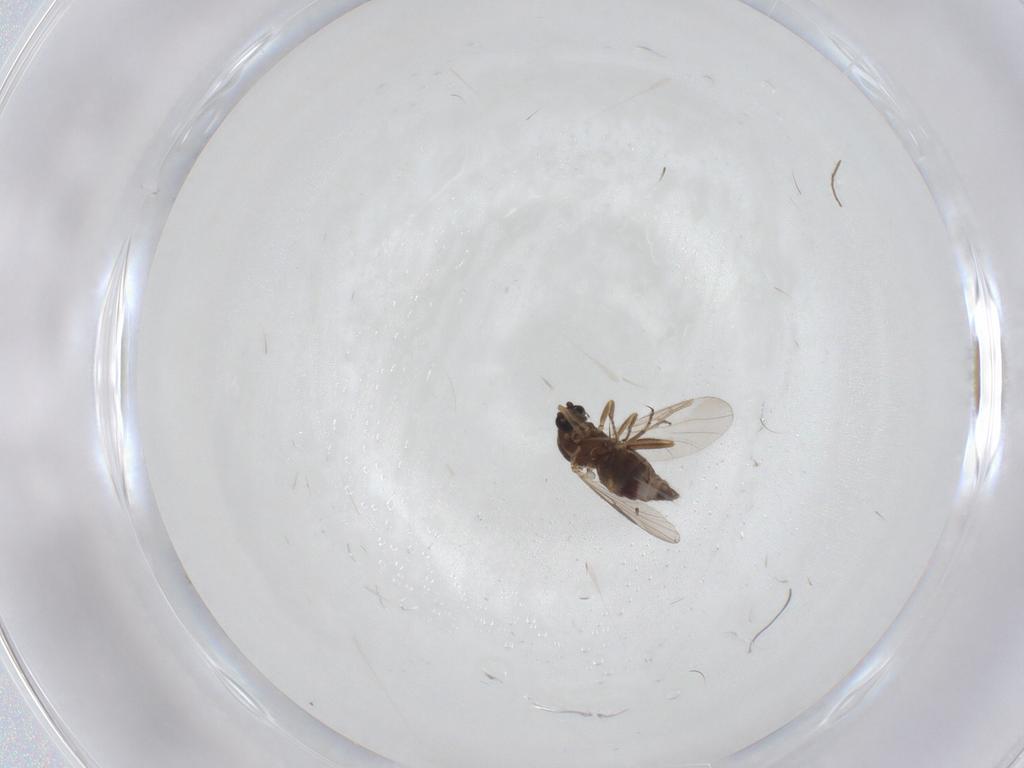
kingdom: Animalia
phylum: Arthropoda
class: Insecta
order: Diptera
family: Ceratopogonidae
